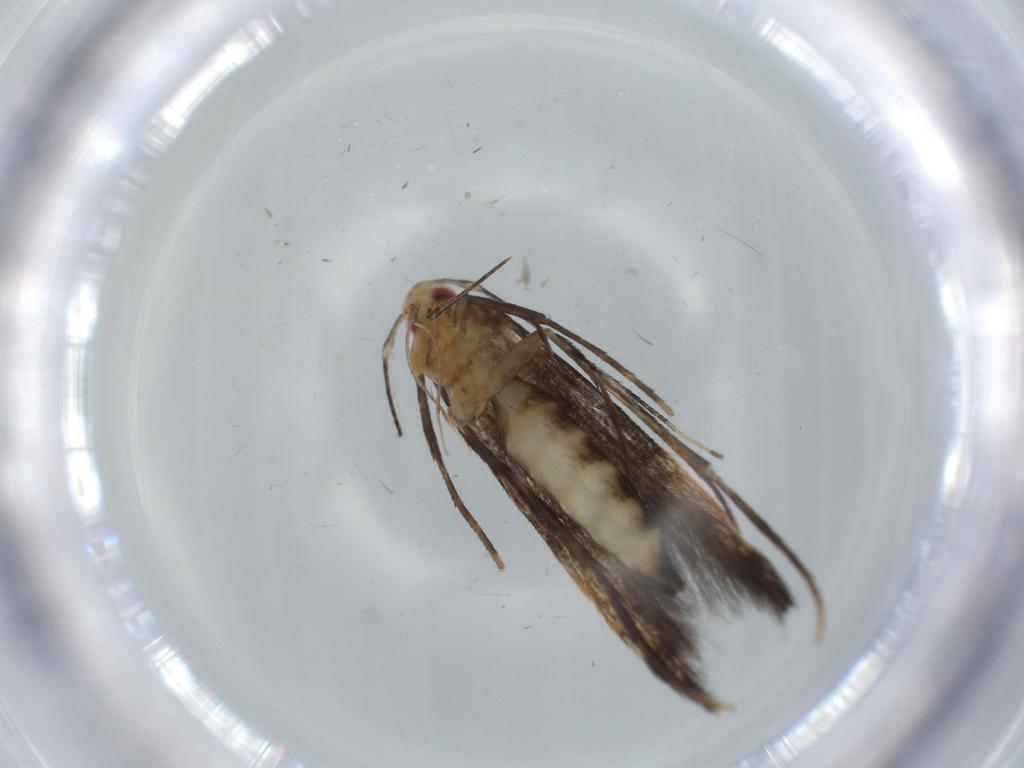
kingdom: Animalia
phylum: Arthropoda
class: Insecta
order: Lepidoptera
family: Cosmopterigidae
